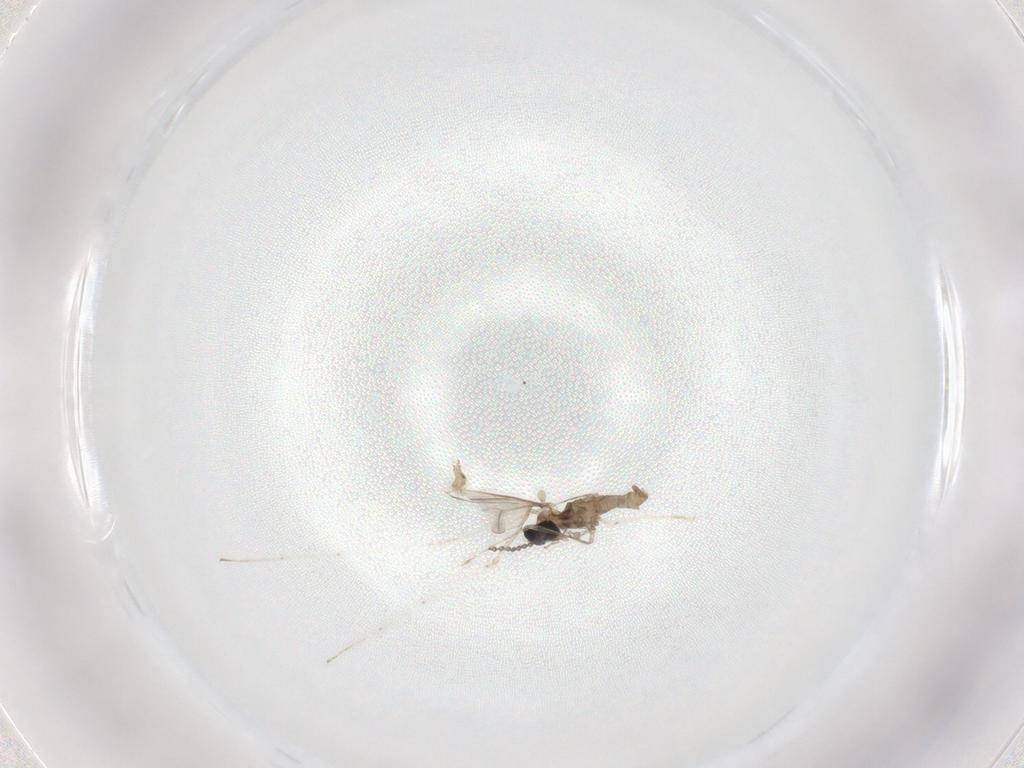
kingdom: Animalia
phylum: Arthropoda
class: Insecta
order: Diptera
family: Cecidomyiidae
